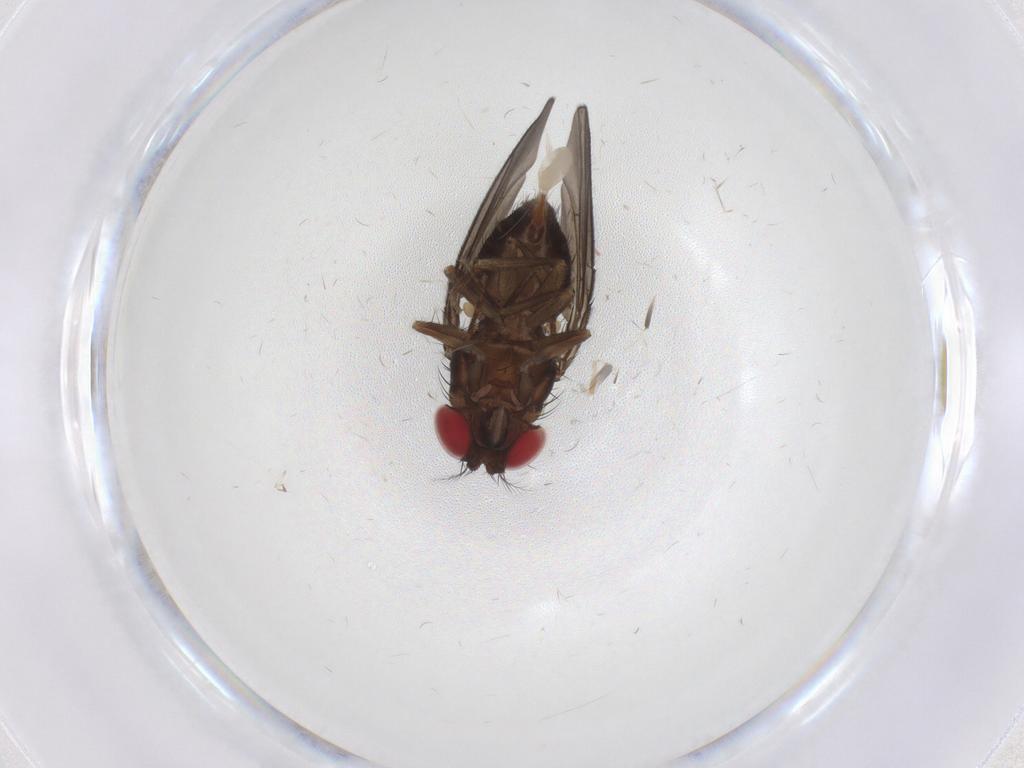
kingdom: Animalia
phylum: Arthropoda
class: Insecta
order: Diptera
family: Drosophilidae
